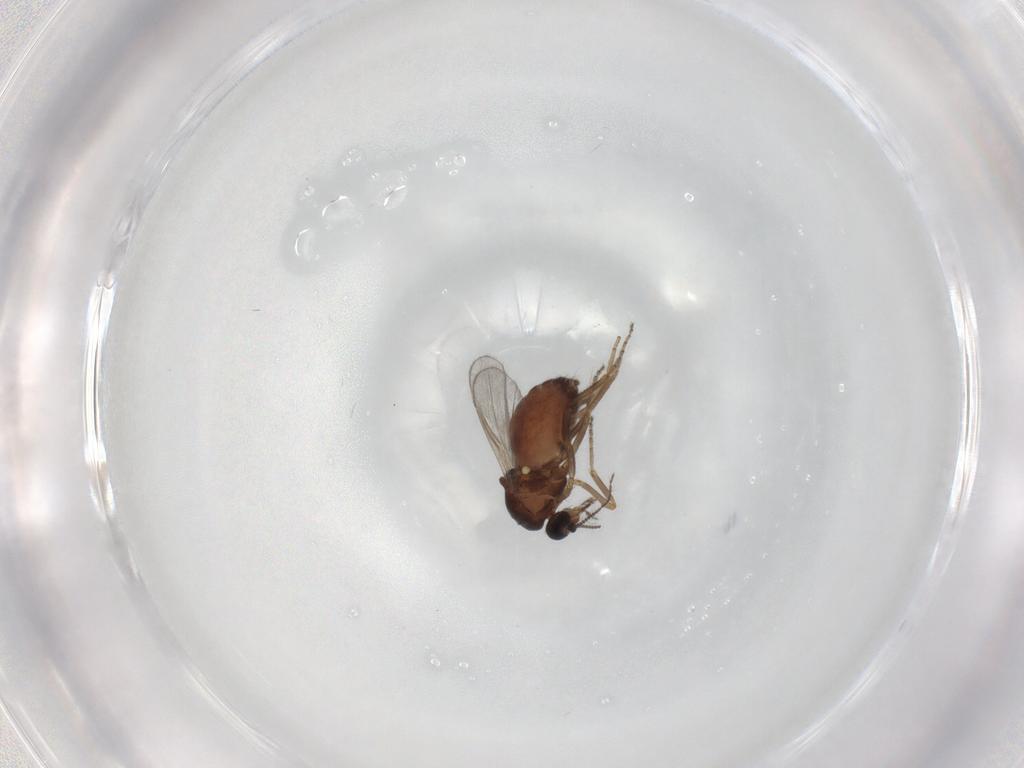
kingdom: Animalia
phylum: Arthropoda
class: Insecta
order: Diptera
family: Ceratopogonidae
